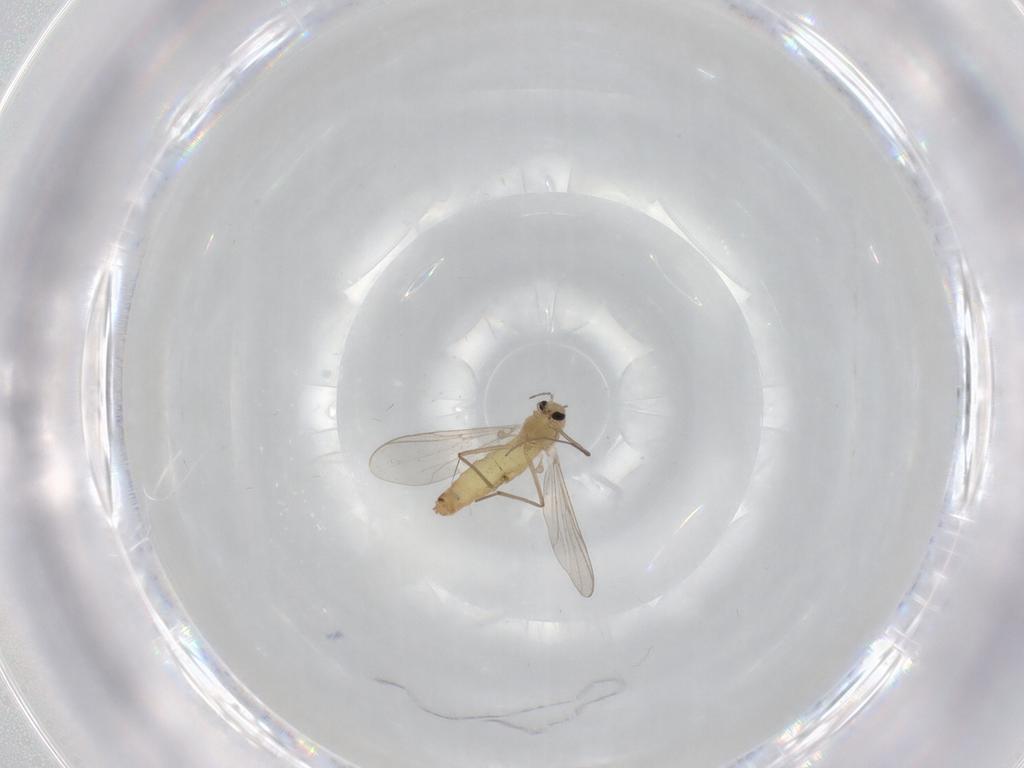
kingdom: Animalia
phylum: Arthropoda
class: Insecta
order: Diptera
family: Chironomidae
